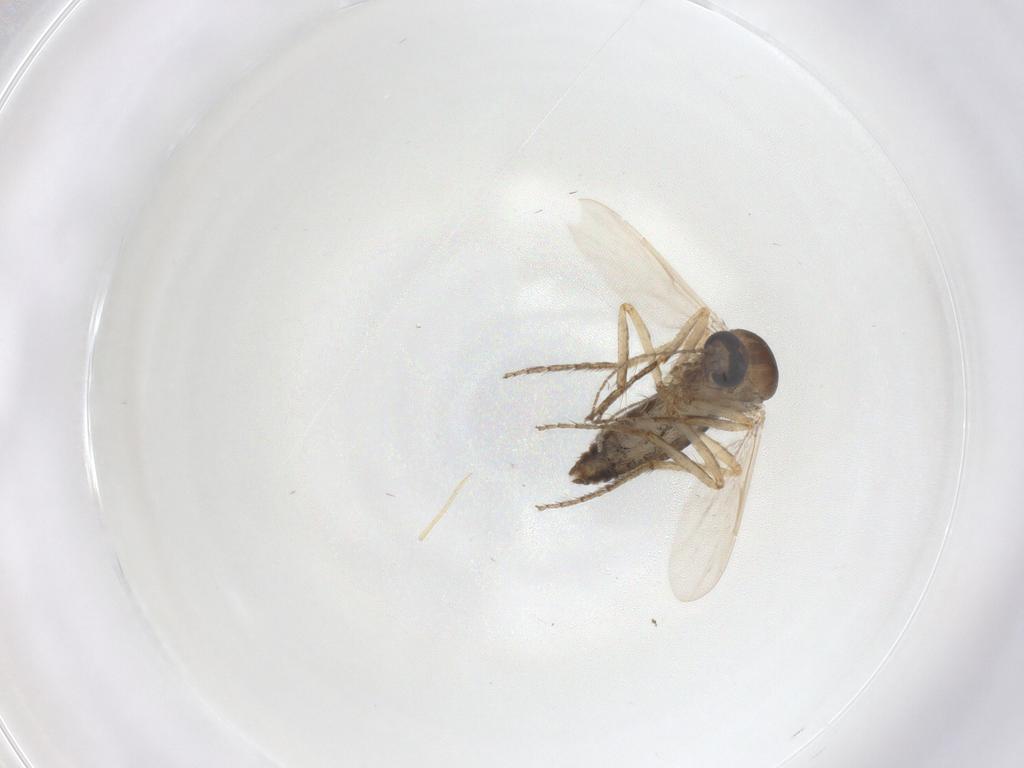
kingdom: Animalia
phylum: Arthropoda
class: Insecta
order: Diptera
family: Ceratopogonidae
